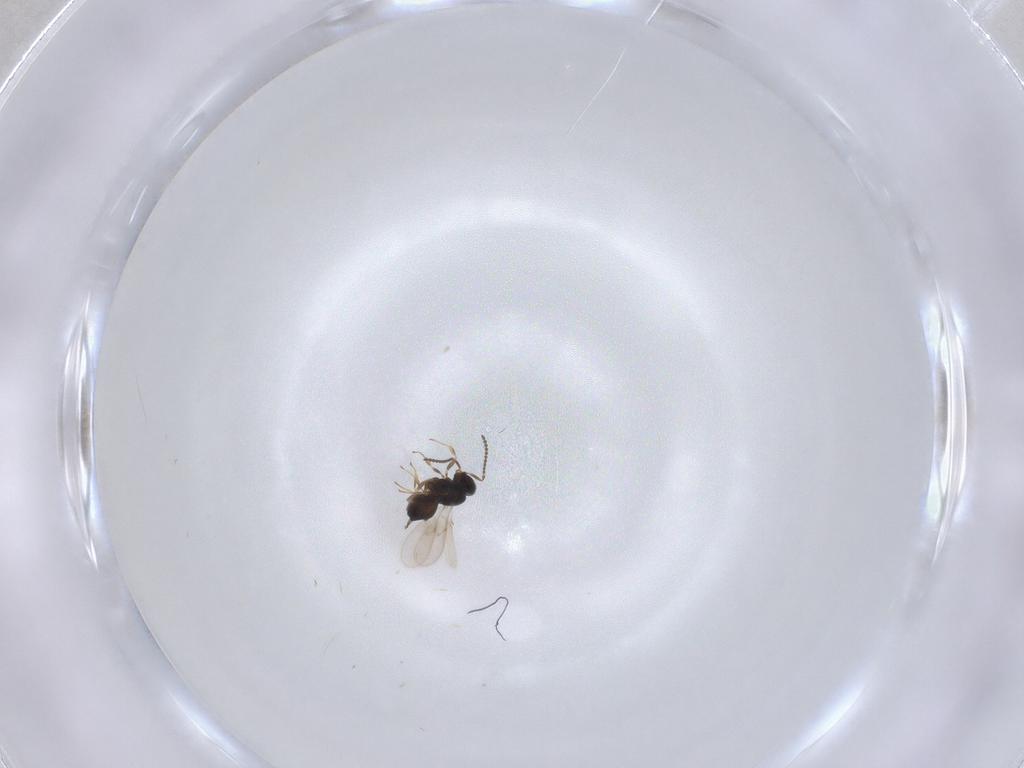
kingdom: Animalia
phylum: Arthropoda
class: Insecta
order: Hymenoptera
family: Scelionidae
